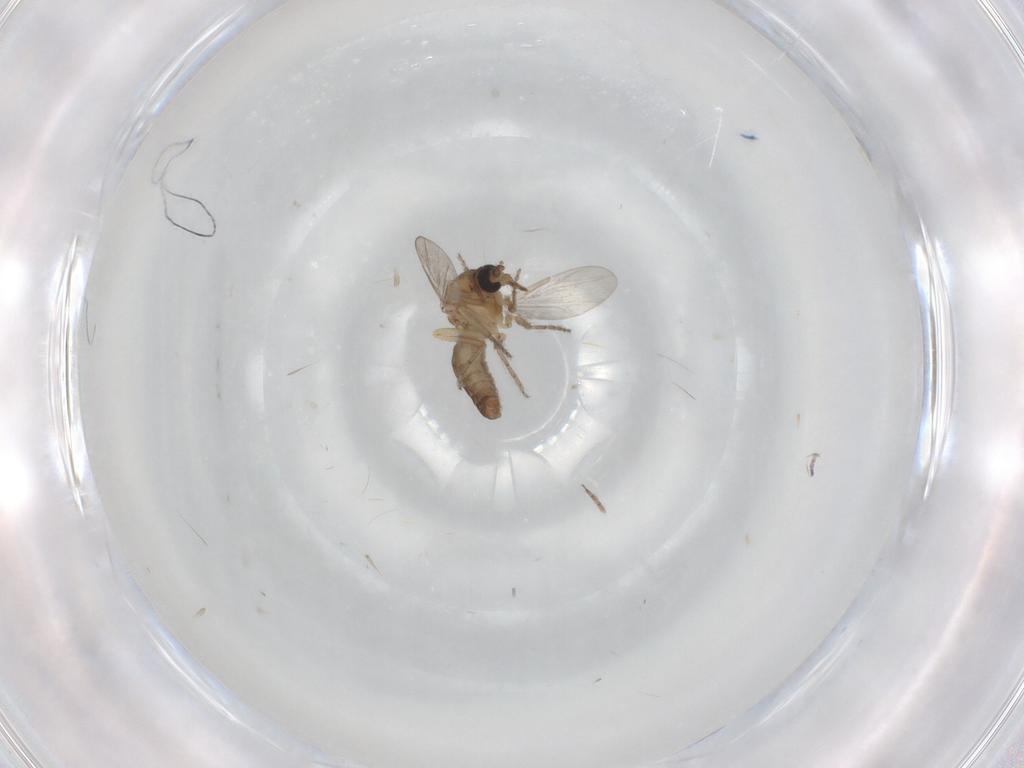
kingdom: Animalia
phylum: Arthropoda
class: Insecta
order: Diptera
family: Ceratopogonidae
